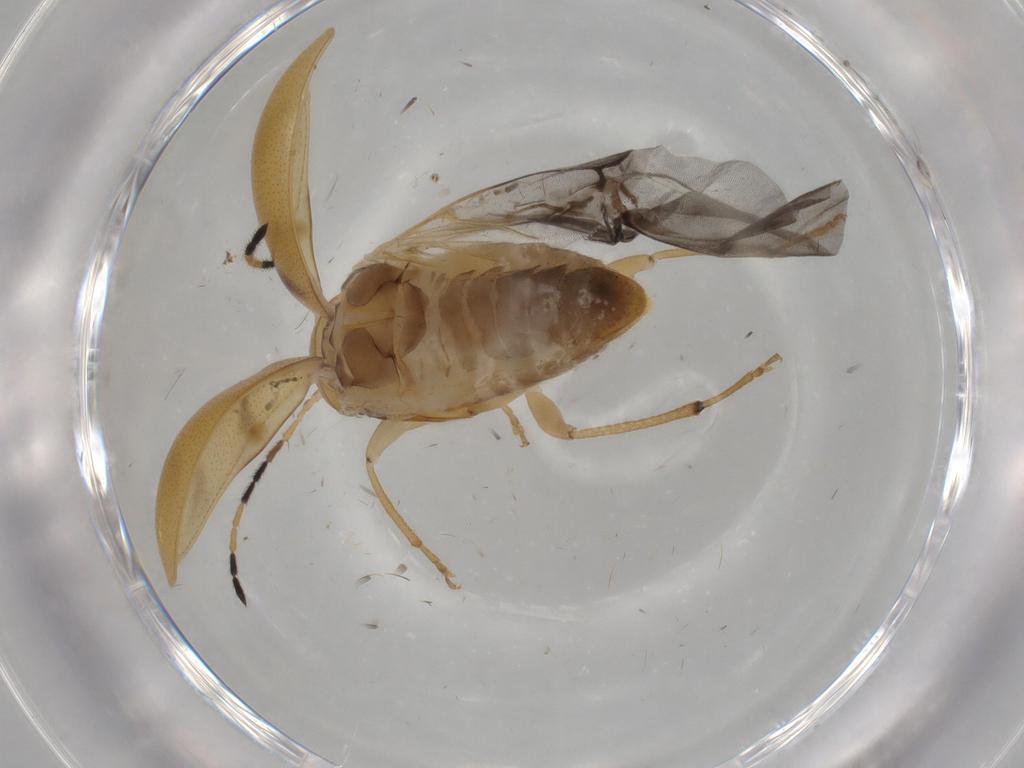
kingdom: Animalia
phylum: Arthropoda
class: Insecta
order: Coleoptera
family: Chrysomelidae
